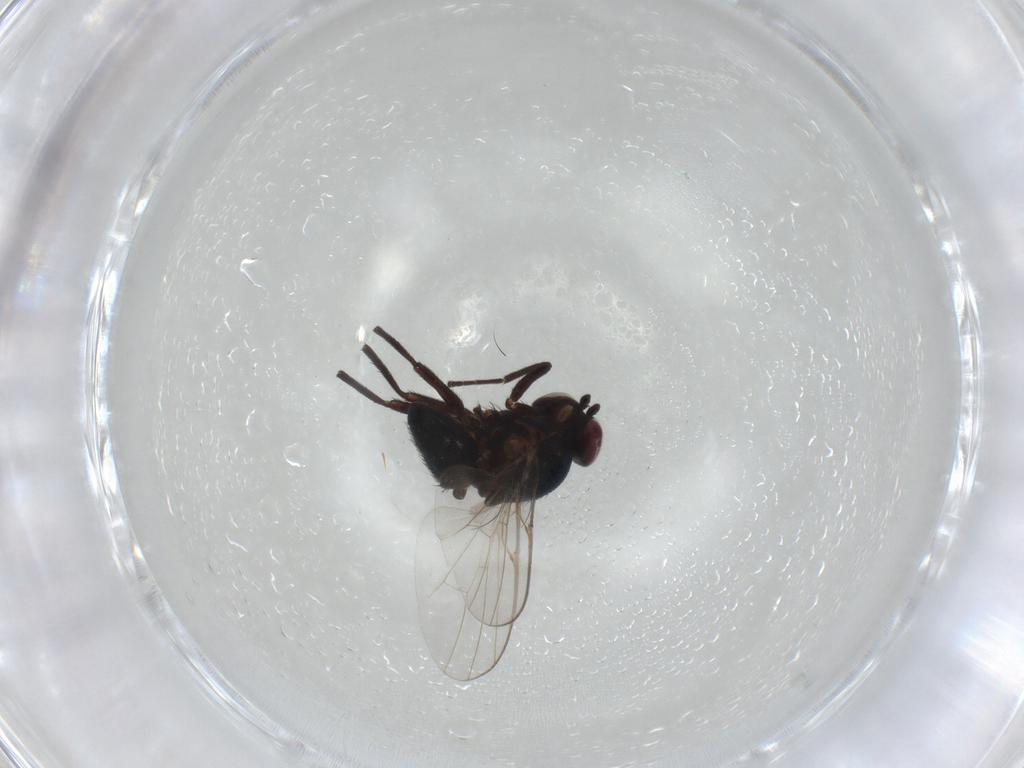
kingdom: Animalia
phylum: Arthropoda
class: Insecta
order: Diptera
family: Agromyzidae
